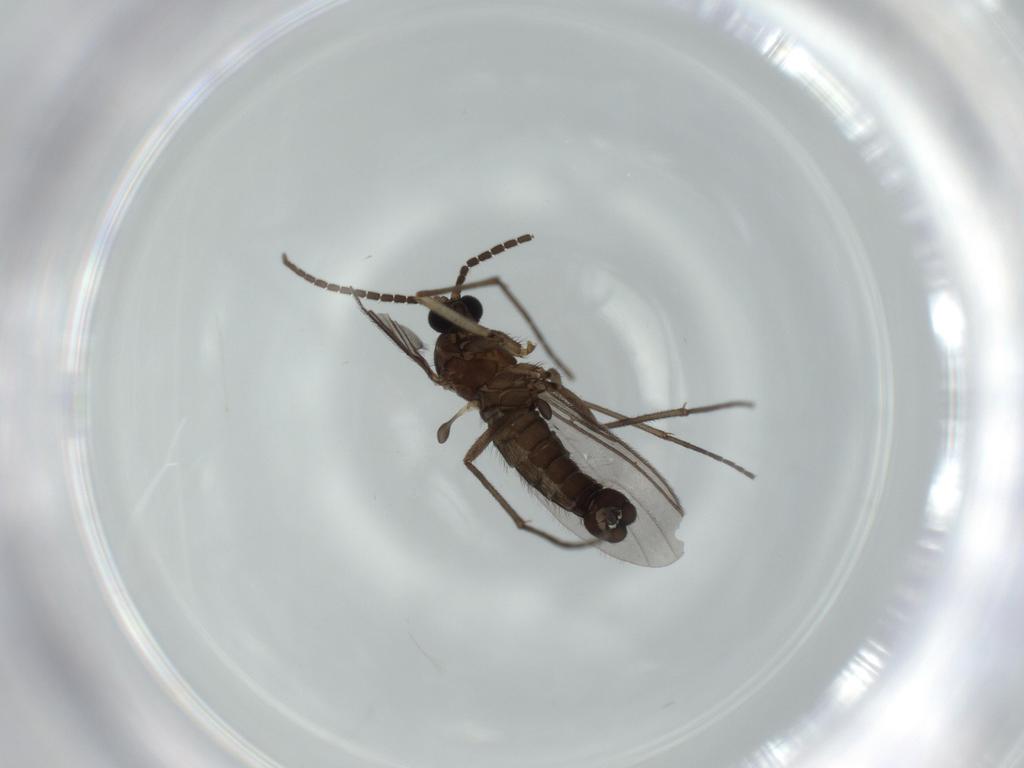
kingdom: Animalia
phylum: Arthropoda
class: Insecta
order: Diptera
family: Sciaridae
